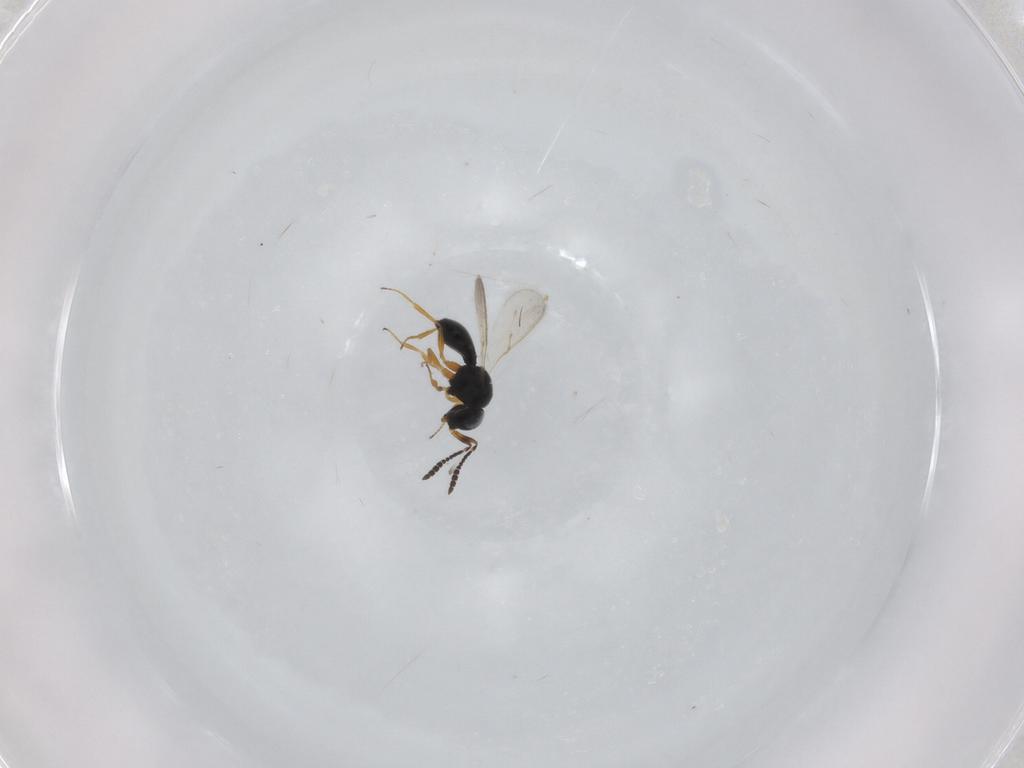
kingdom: Animalia
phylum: Arthropoda
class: Insecta
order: Hymenoptera
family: Scelionidae
